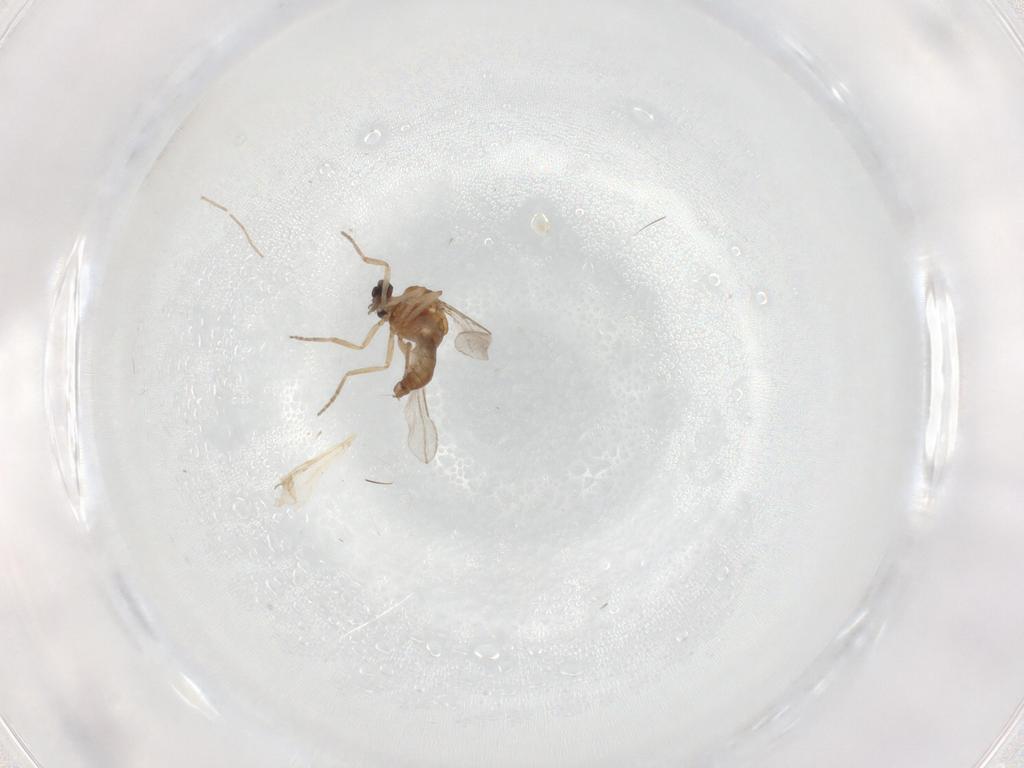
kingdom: Animalia
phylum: Arthropoda
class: Insecta
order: Diptera
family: Ceratopogonidae
